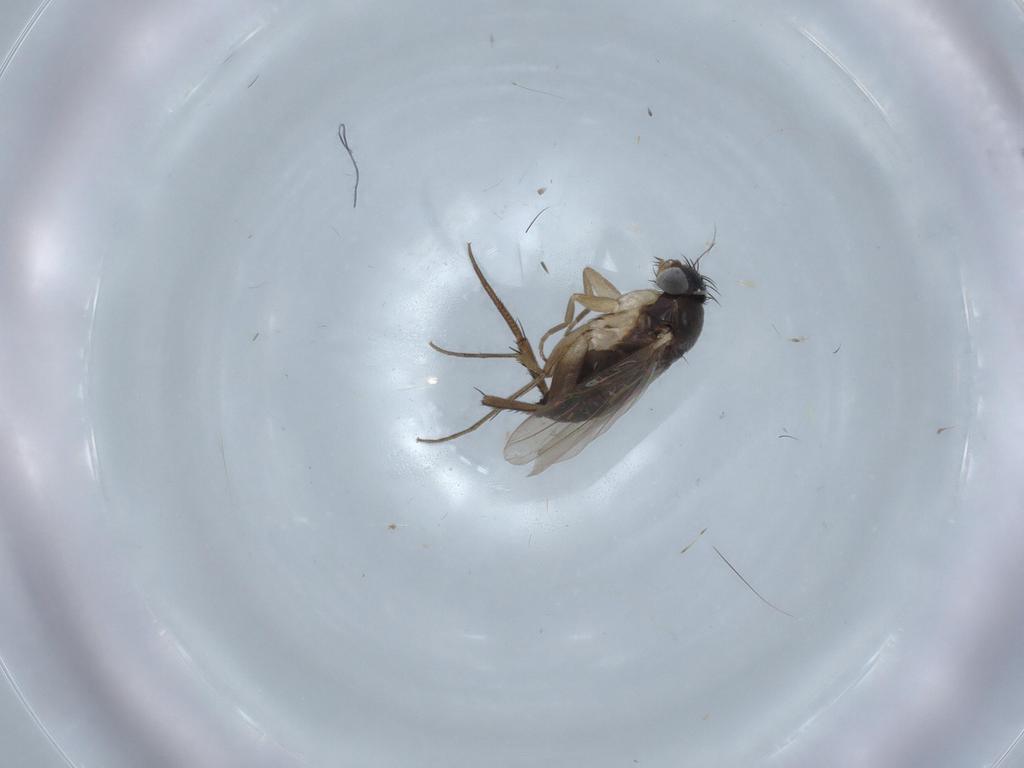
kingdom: Animalia
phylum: Arthropoda
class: Insecta
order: Diptera
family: Phoridae
